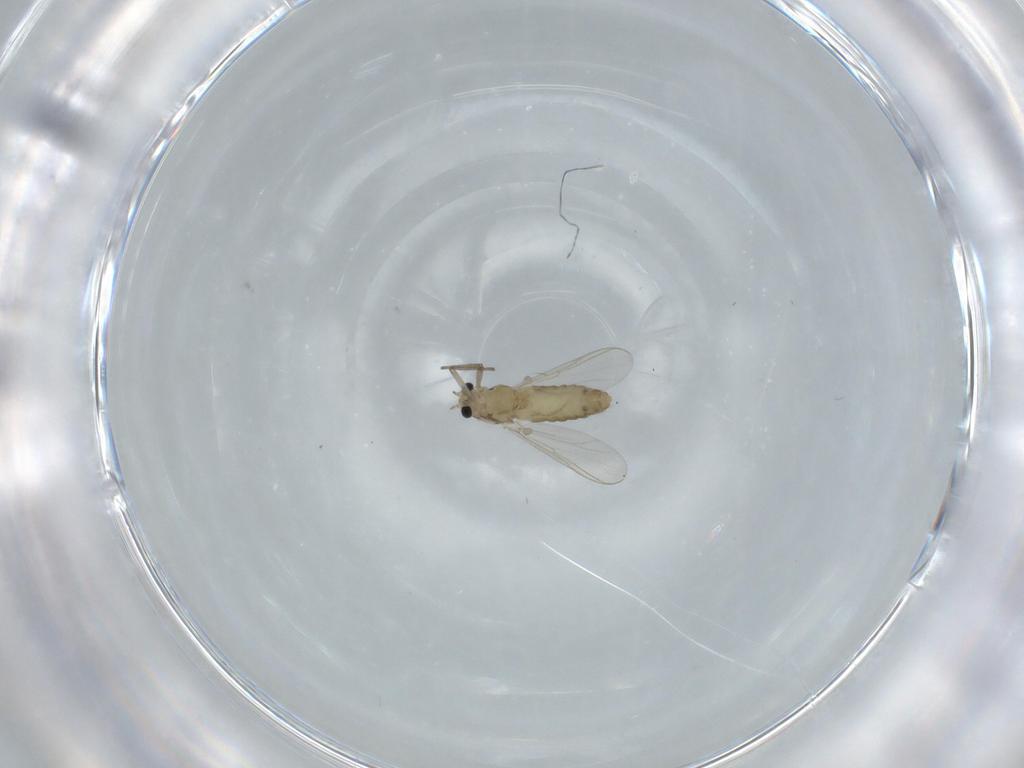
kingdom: Animalia
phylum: Arthropoda
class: Insecta
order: Diptera
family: Chironomidae
